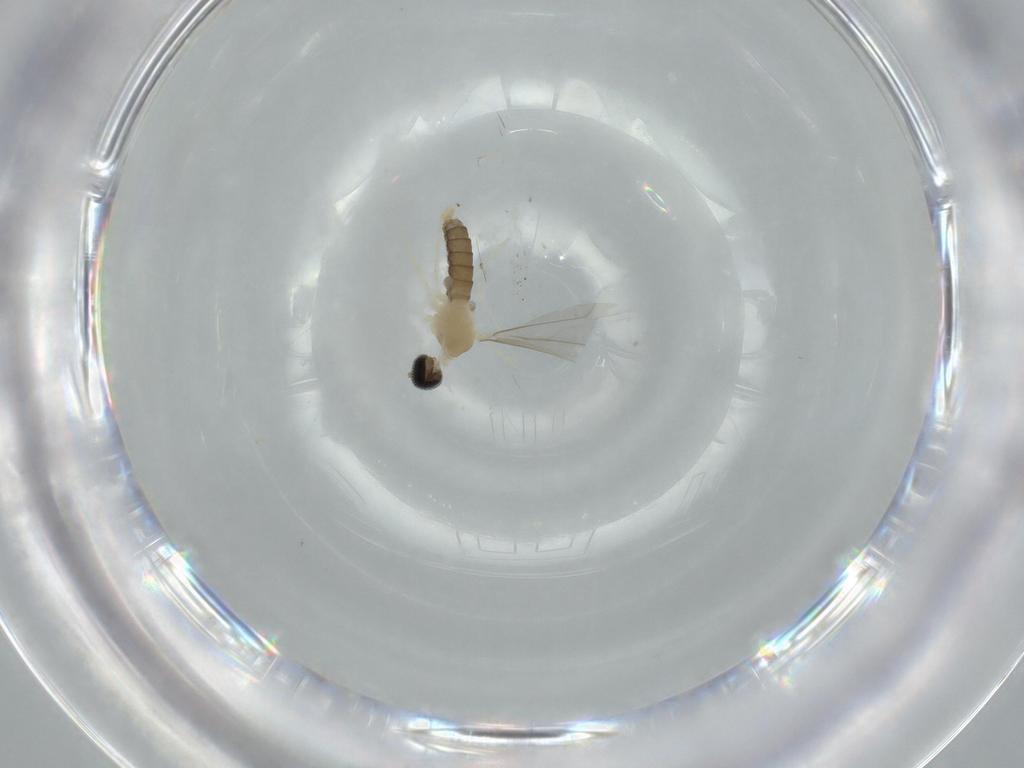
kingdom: Animalia
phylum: Arthropoda
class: Insecta
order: Diptera
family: Cecidomyiidae
